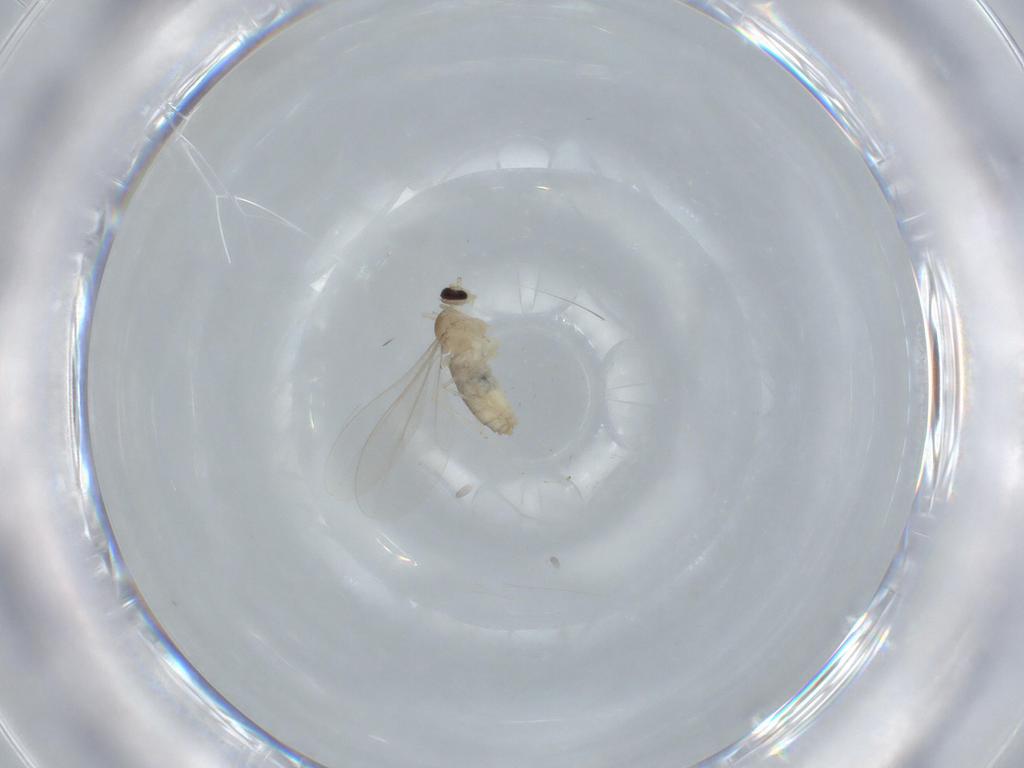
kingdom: Animalia
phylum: Arthropoda
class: Insecta
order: Diptera
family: Cecidomyiidae
